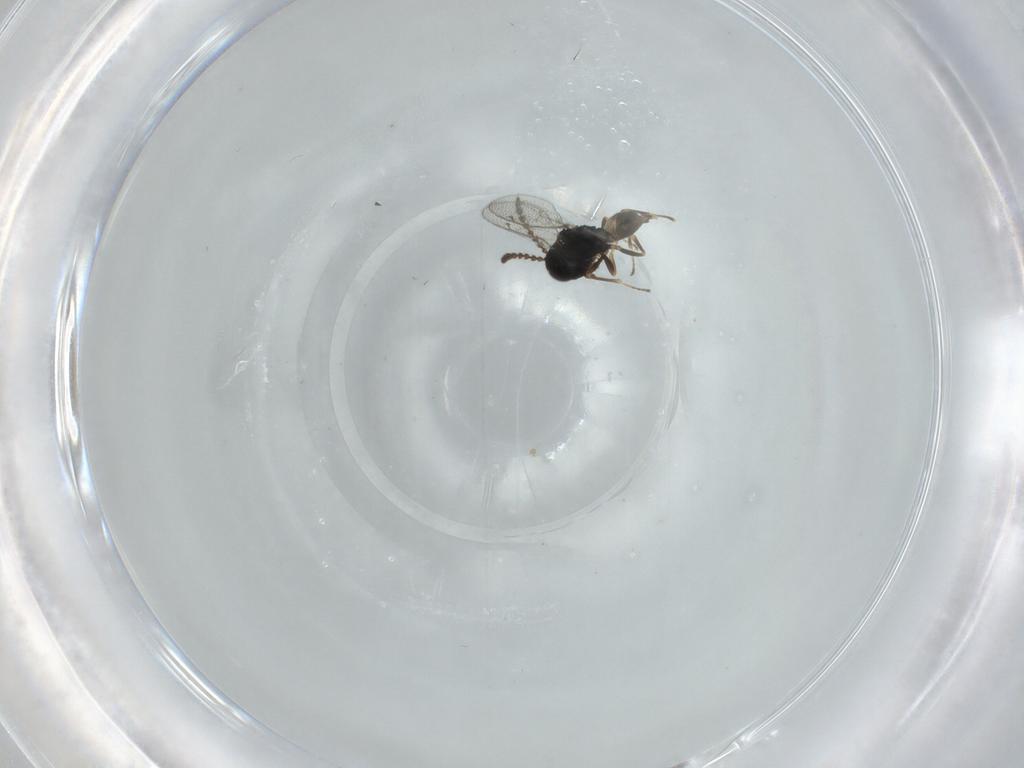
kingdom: Animalia
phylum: Arthropoda
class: Insecta
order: Hymenoptera
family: Pteromalidae
